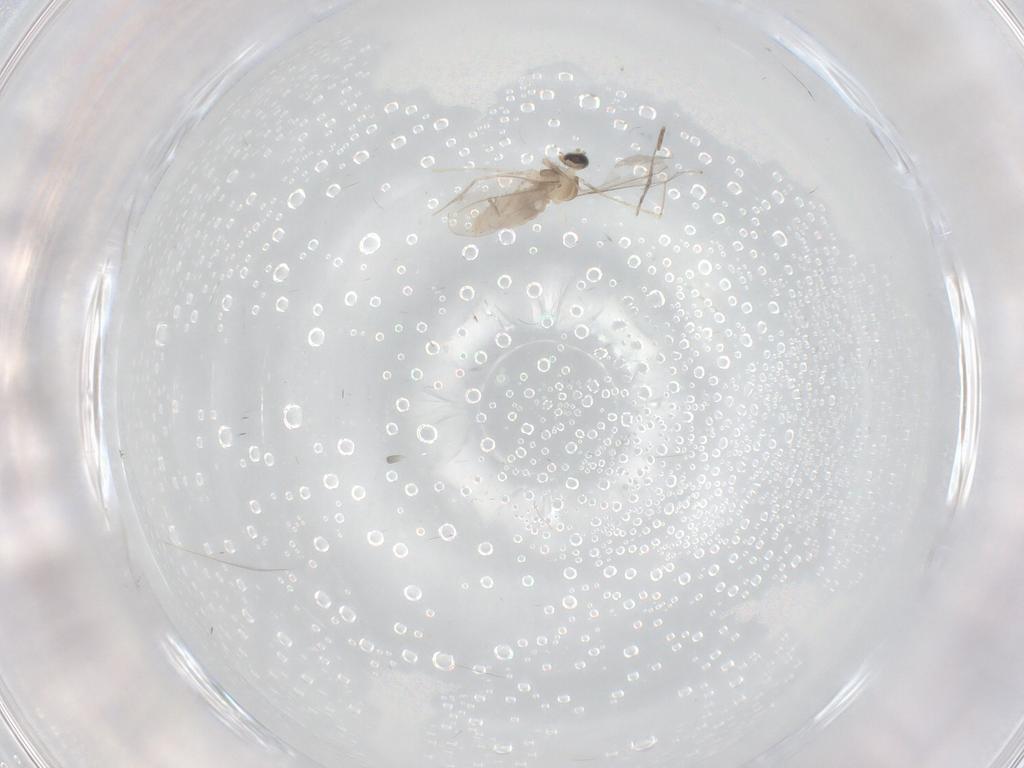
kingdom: Animalia
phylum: Arthropoda
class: Insecta
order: Diptera
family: Cecidomyiidae
